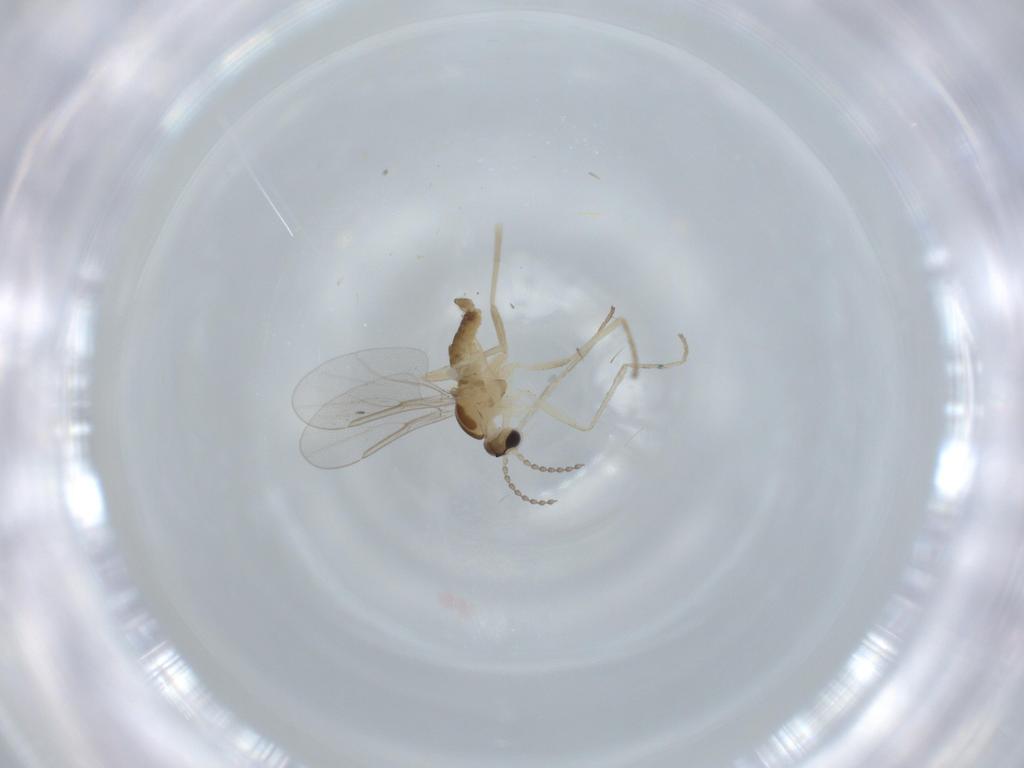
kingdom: Animalia
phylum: Arthropoda
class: Insecta
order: Diptera
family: Cecidomyiidae
